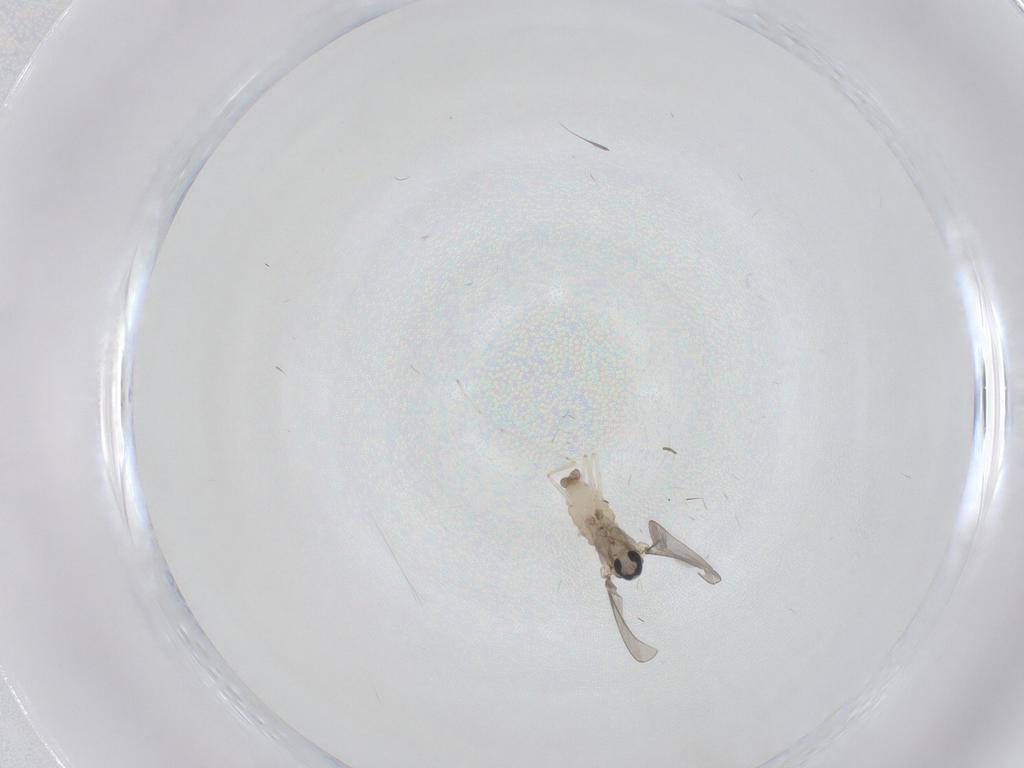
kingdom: Animalia
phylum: Arthropoda
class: Insecta
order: Diptera
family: Cecidomyiidae
